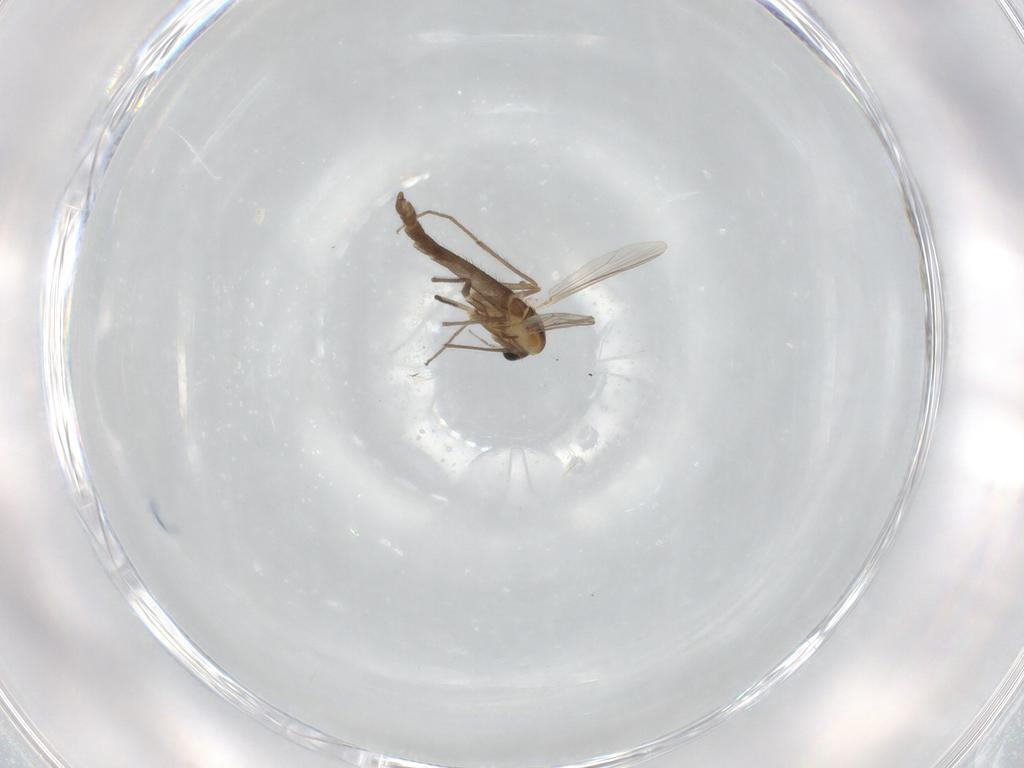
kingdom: Animalia
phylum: Arthropoda
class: Insecta
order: Diptera
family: Chironomidae
